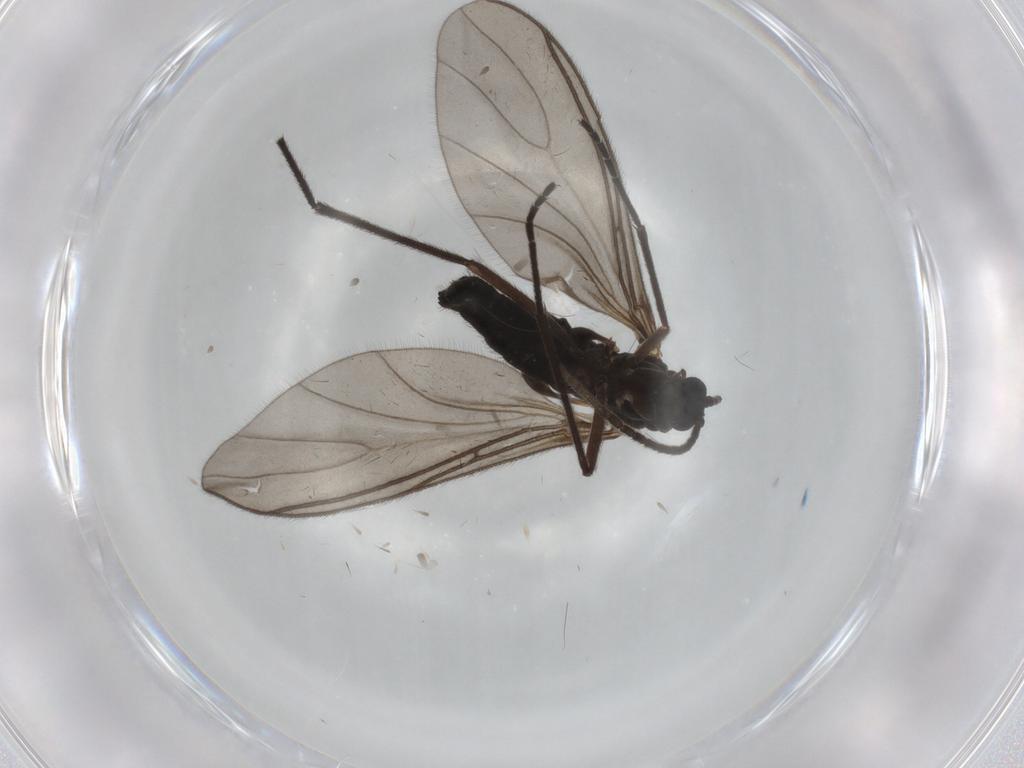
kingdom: Animalia
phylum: Arthropoda
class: Insecta
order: Diptera
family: Sciaridae
